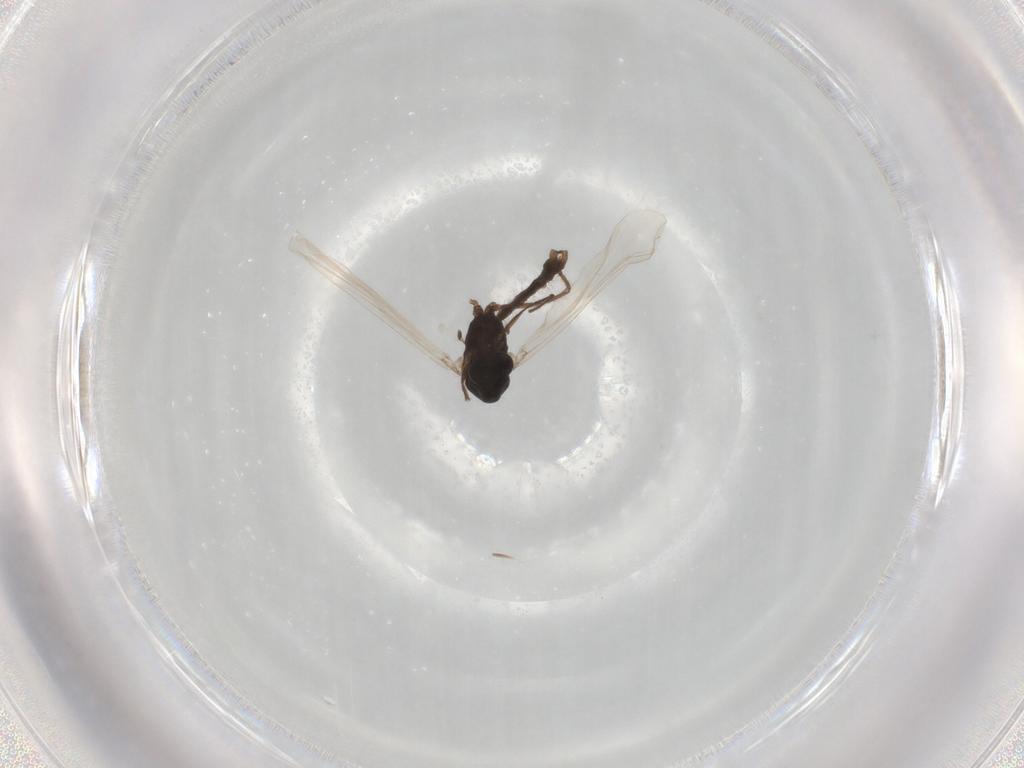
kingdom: Animalia
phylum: Arthropoda
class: Insecta
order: Diptera
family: Chironomidae
